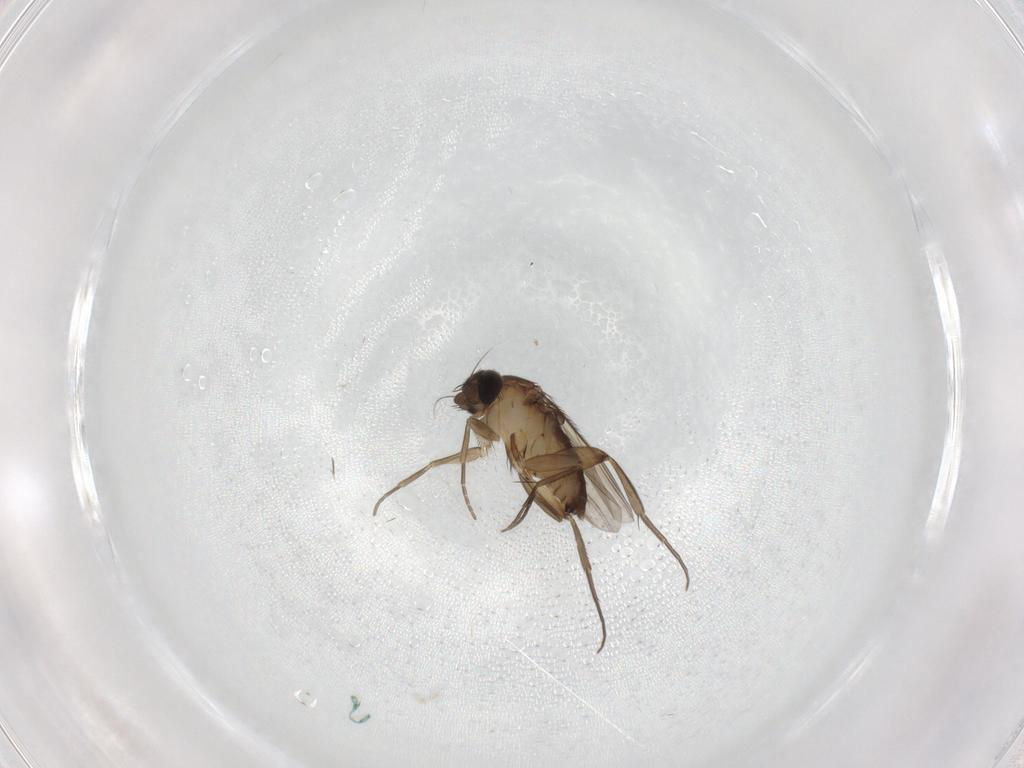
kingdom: Animalia
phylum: Arthropoda
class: Insecta
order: Diptera
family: Phoridae
